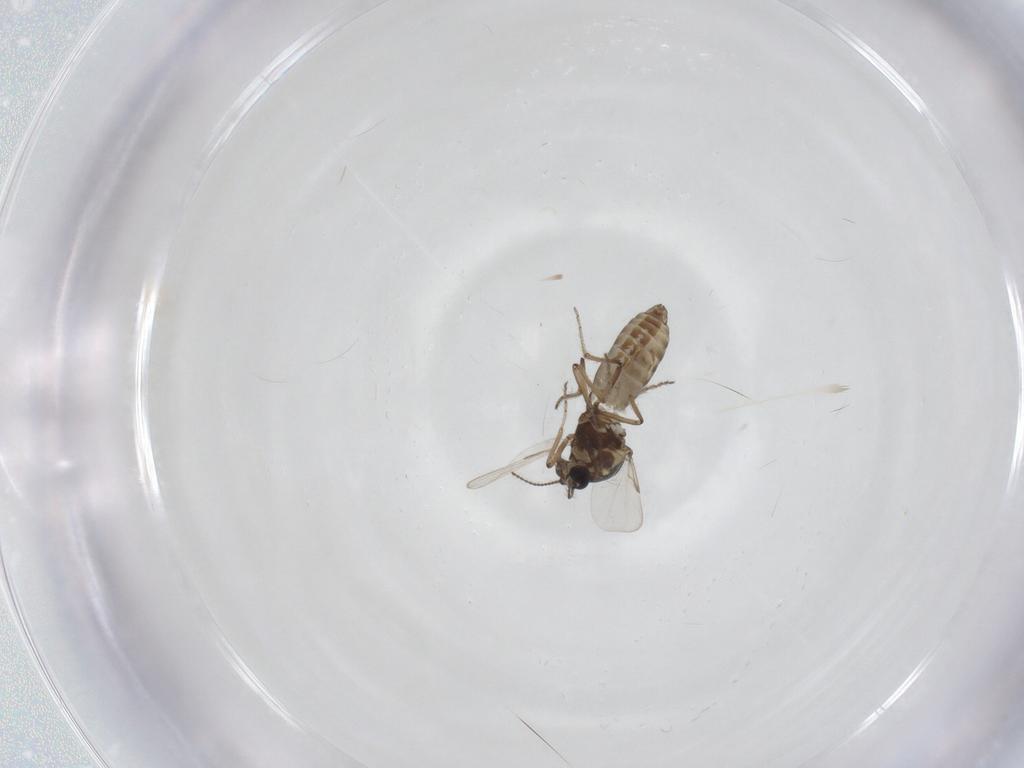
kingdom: Animalia
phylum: Arthropoda
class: Insecta
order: Diptera
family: Ceratopogonidae
